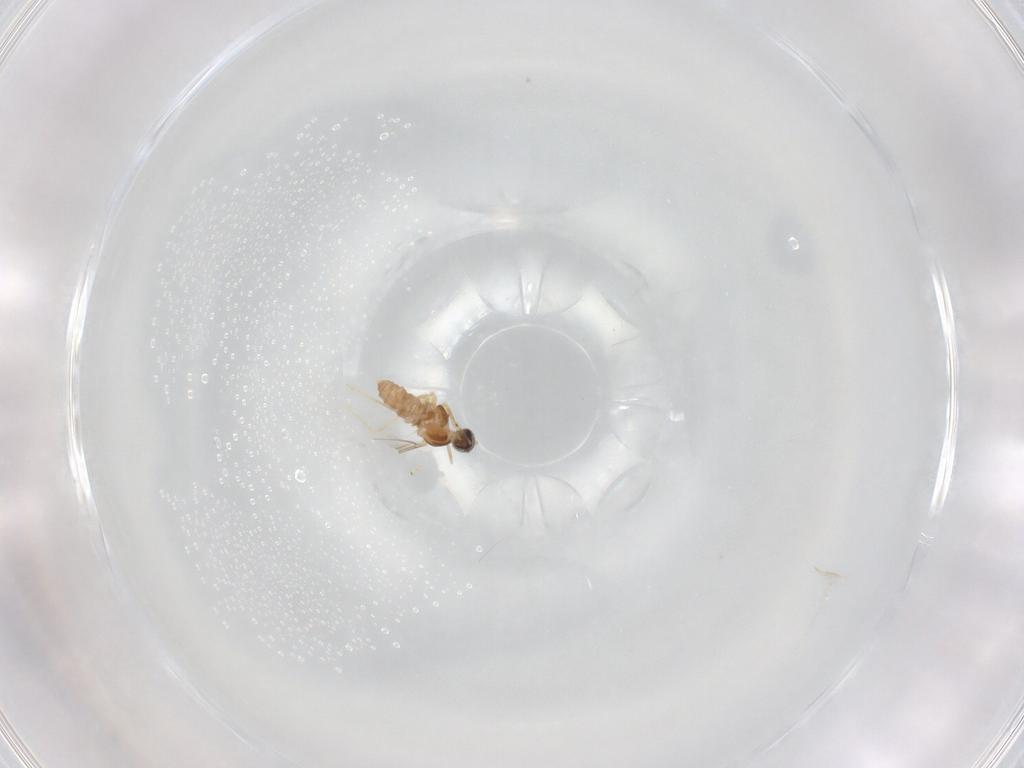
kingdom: Animalia
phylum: Arthropoda
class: Insecta
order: Diptera
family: Cecidomyiidae
